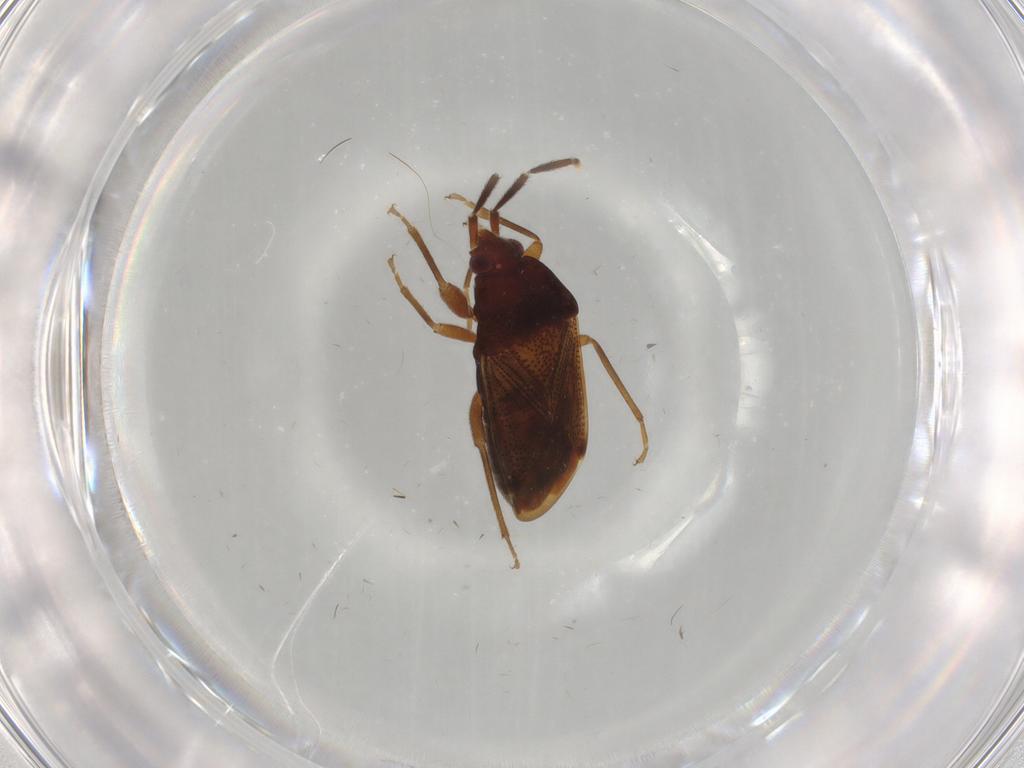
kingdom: Animalia
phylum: Arthropoda
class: Insecta
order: Hemiptera
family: Rhyparochromidae
